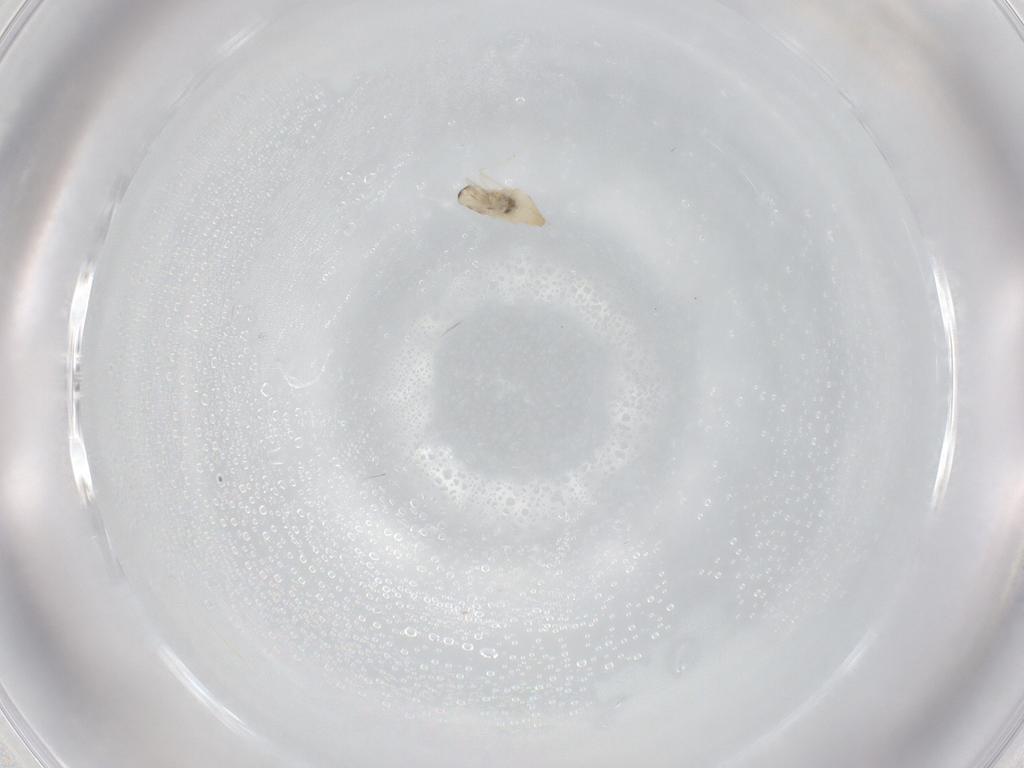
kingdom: Animalia
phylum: Arthropoda
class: Insecta
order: Diptera
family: Cecidomyiidae
